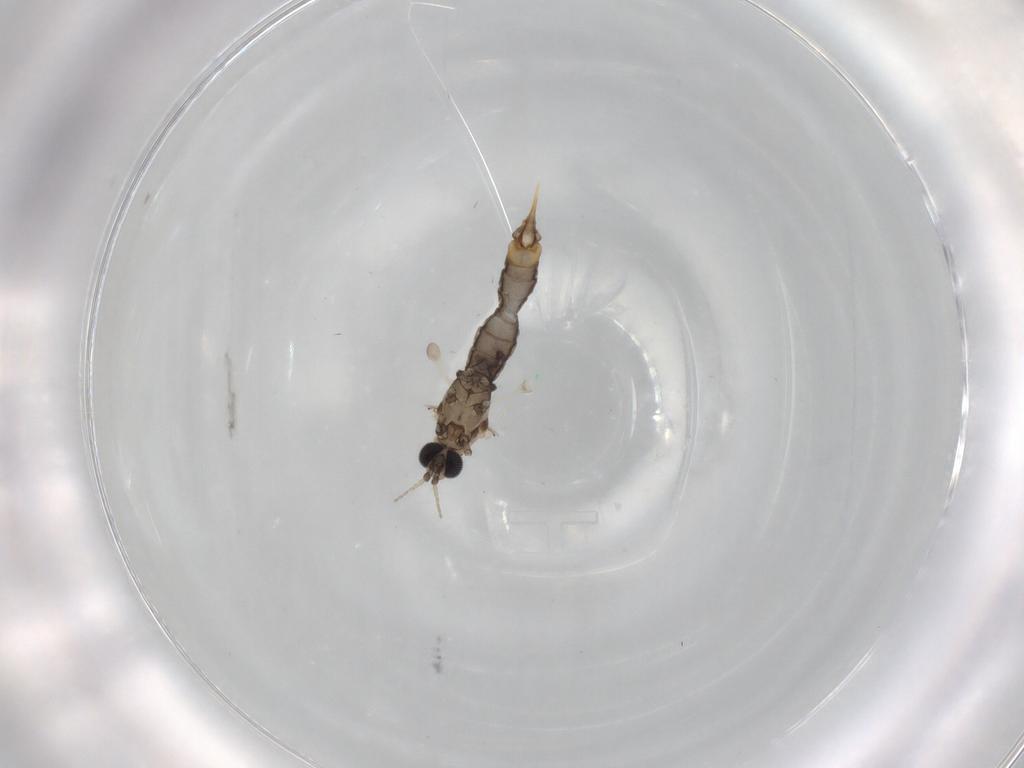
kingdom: Animalia
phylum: Arthropoda
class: Insecta
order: Diptera
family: Limoniidae
